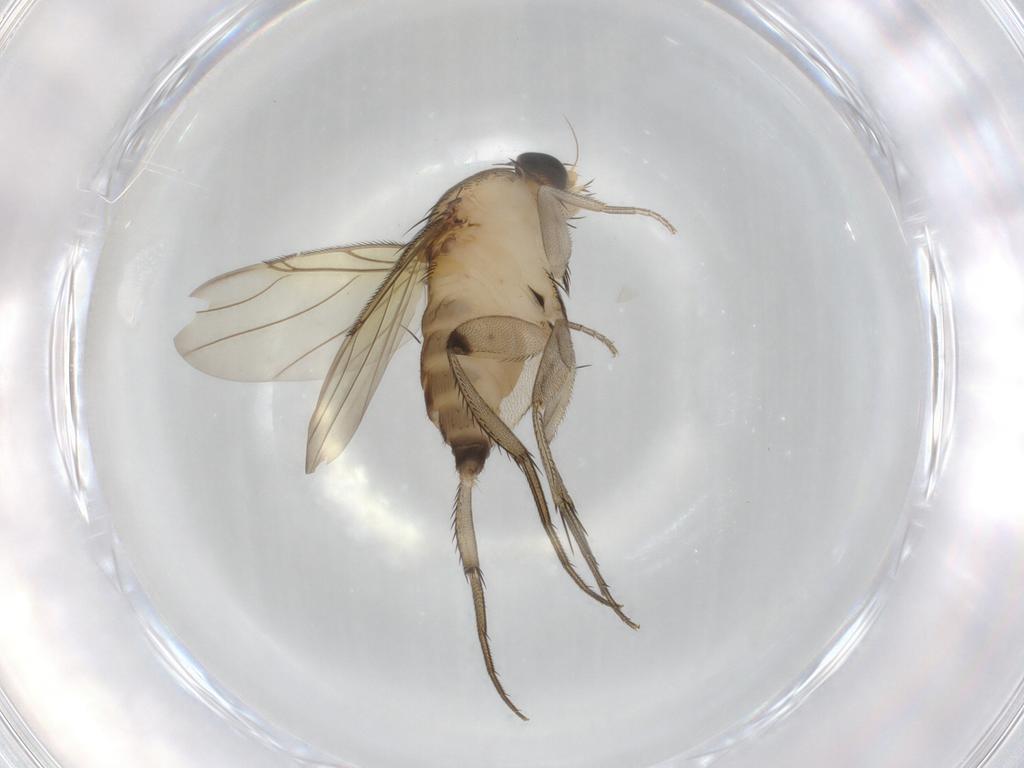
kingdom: Animalia
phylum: Arthropoda
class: Insecta
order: Diptera
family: Phoridae
